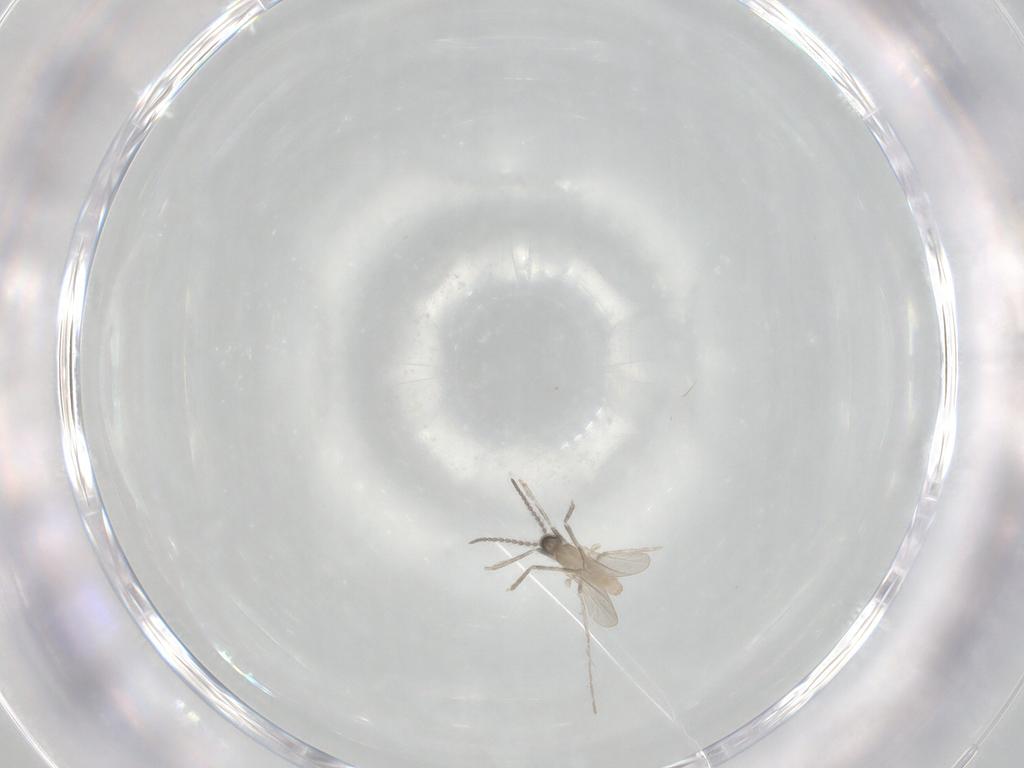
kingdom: Animalia
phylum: Arthropoda
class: Insecta
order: Diptera
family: Cecidomyiidae
